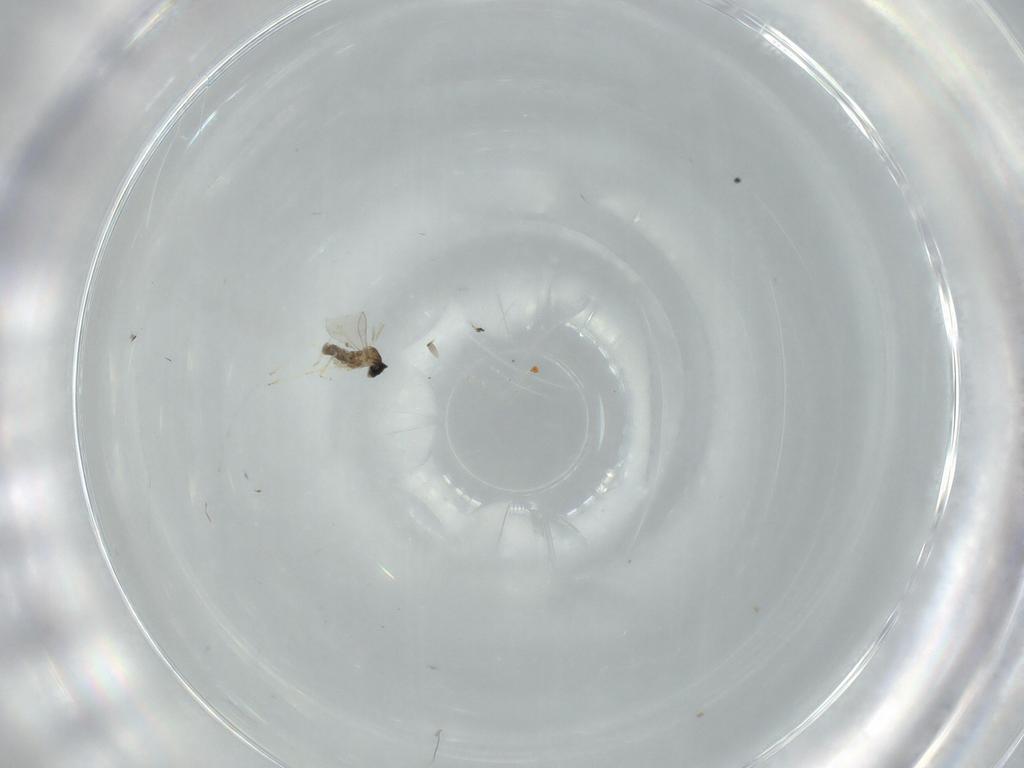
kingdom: Animalia
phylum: Arthropoda
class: Insecta
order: Diptera
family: Cecidomyiidae
